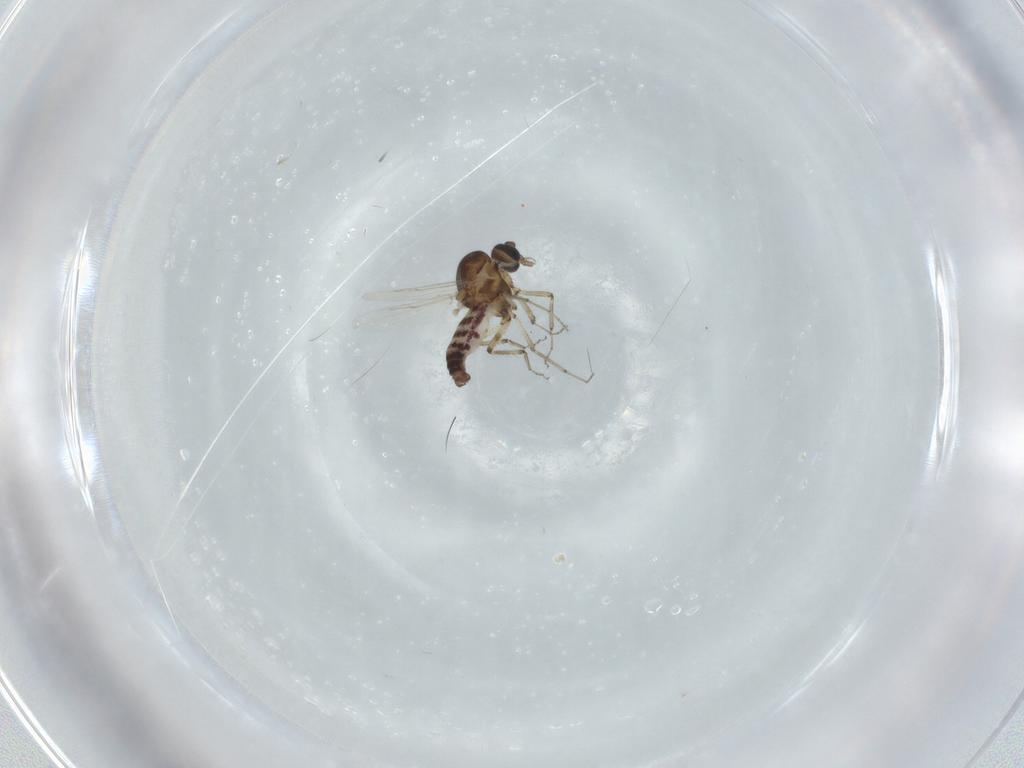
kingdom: Animalia
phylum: Arthropoda
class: Insecta
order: Diptera
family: Ceratopogonidae
